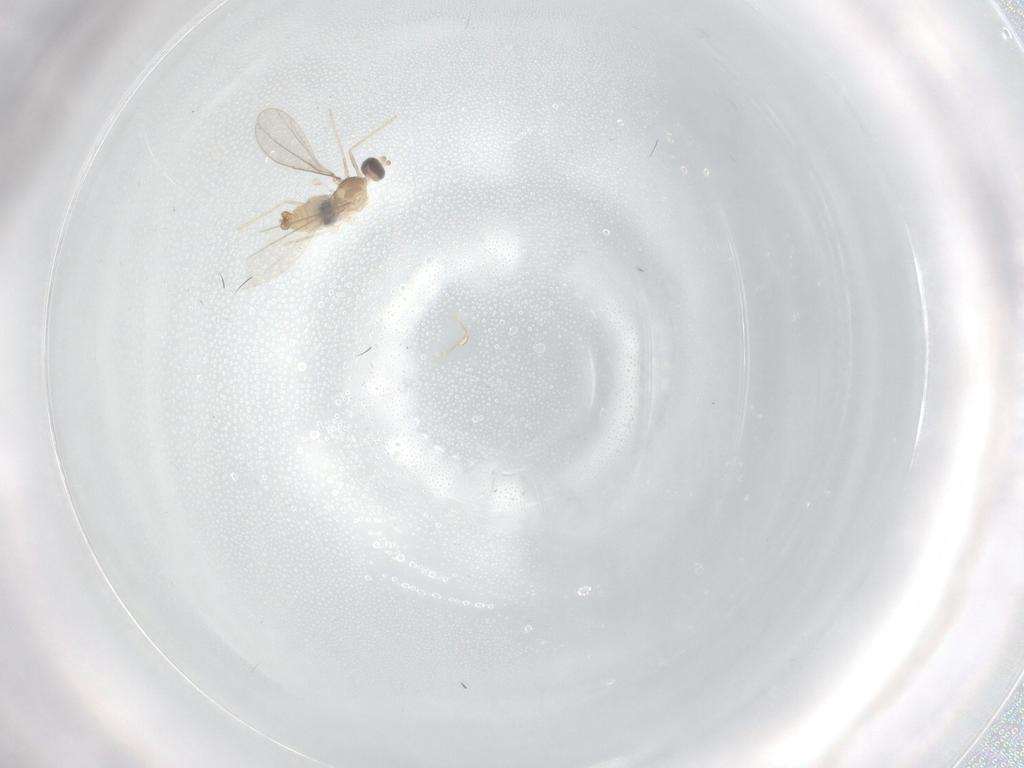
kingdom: Animalia
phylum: Arthropoda
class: Insecta
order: Diptera
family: Cecidomyiidae
